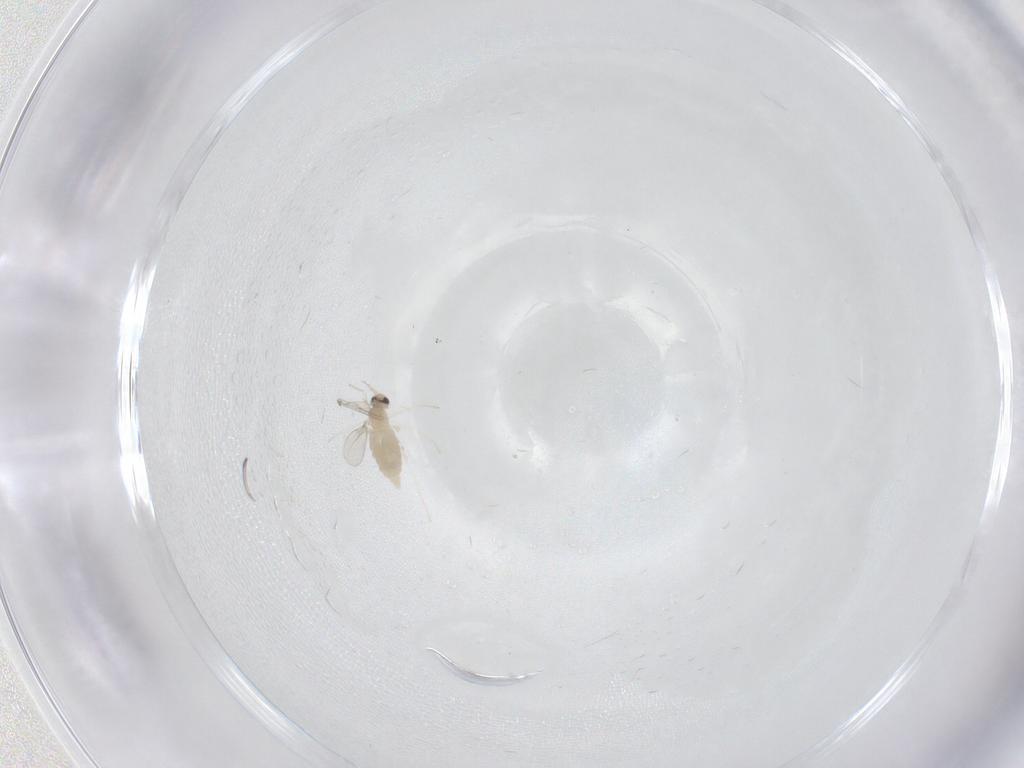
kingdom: Animalia
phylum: Arthropoda
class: Insecta
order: Diptera
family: Cecidomyiidae
